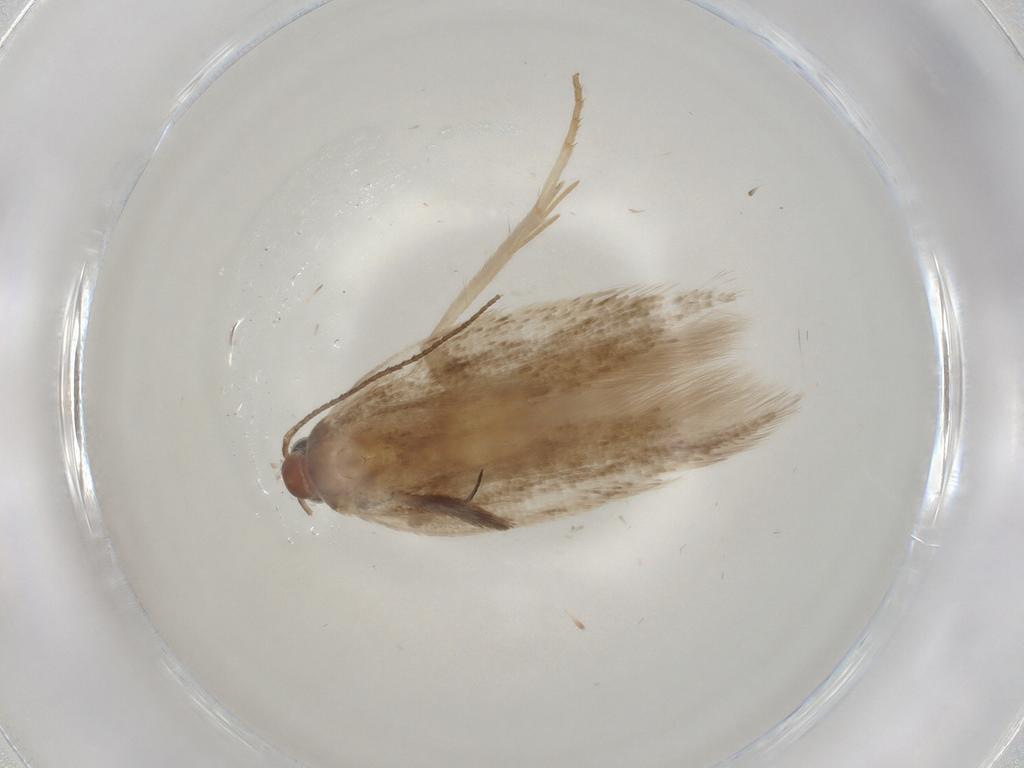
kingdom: Animalia
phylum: Arthropoda
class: Insecta
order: Lepidoptera
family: Gelechiidae
